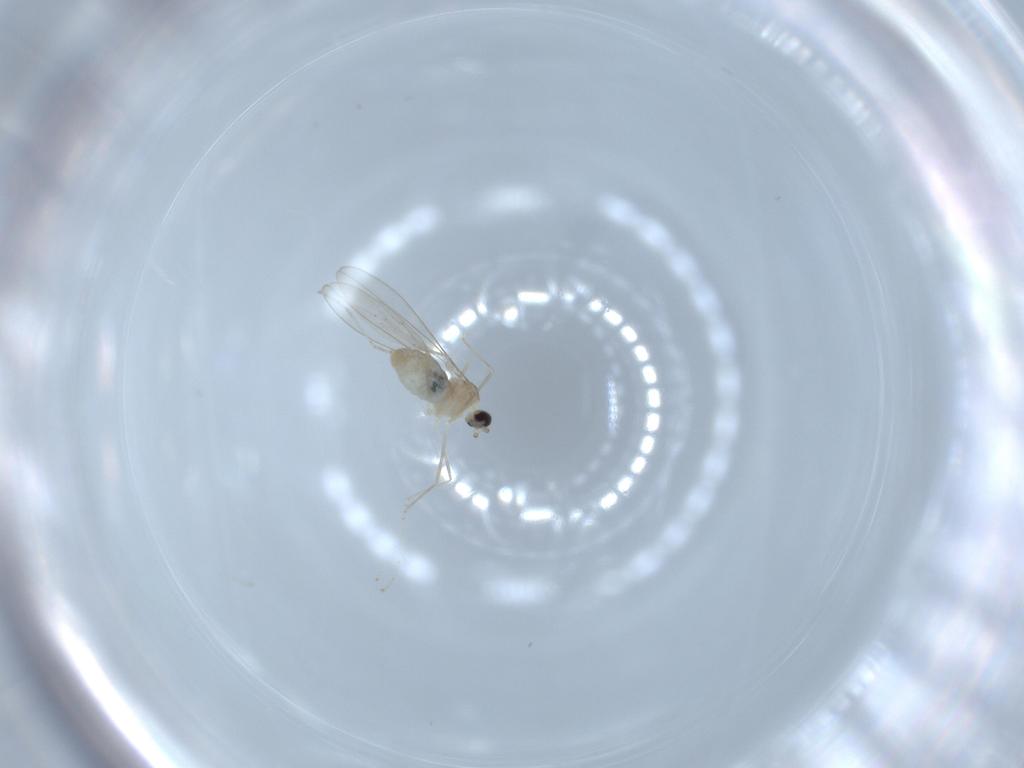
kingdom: Animalia
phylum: Arthropoda
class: Insecta
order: Diptera
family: Cecidomyiidae
